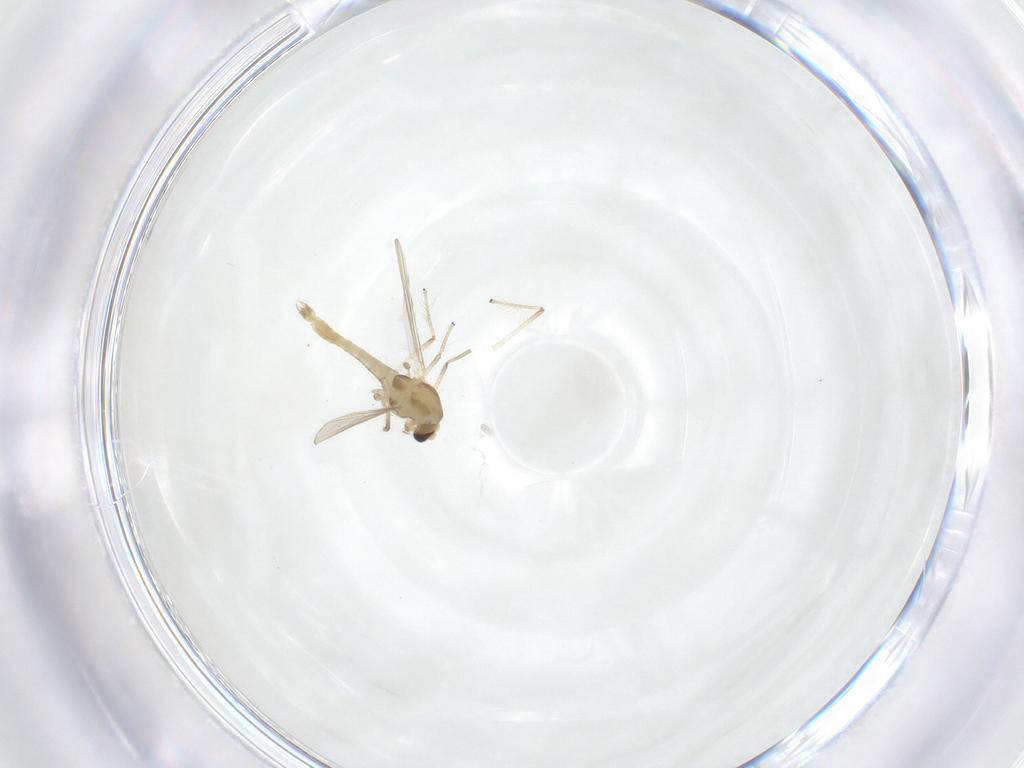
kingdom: Animalia
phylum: Arthropoda
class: Insecta
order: Diptera
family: Chironomidae
